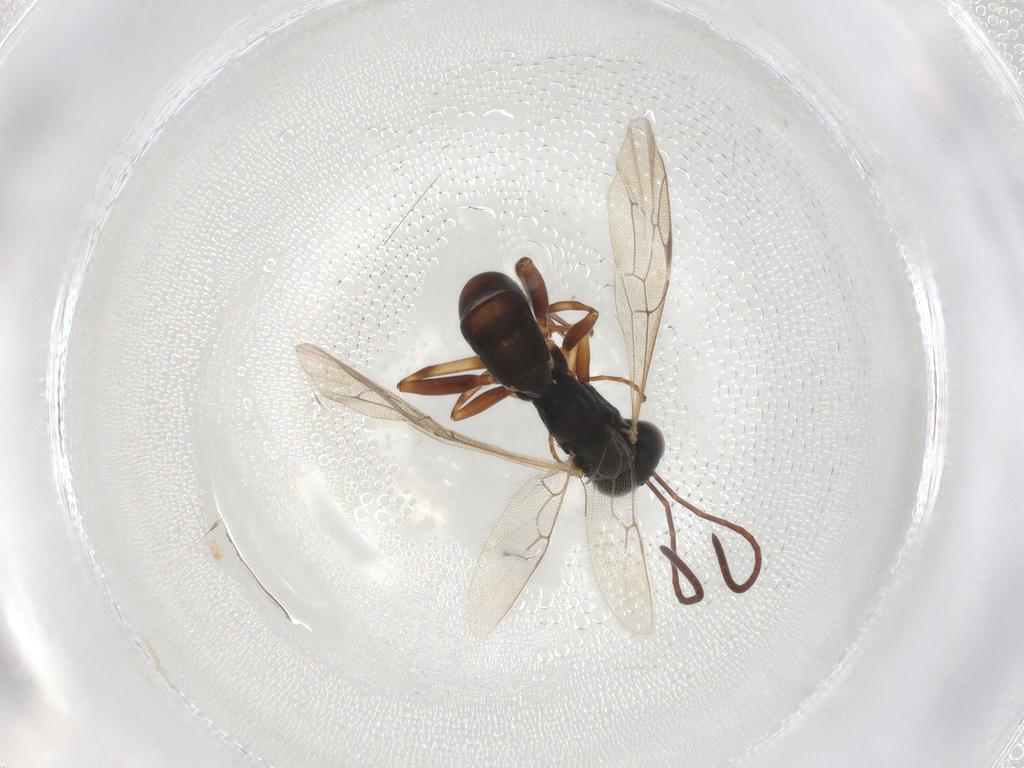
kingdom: Animalia
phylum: Arthropoda
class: Insecta
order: Hymenoptera
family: Ichneumonidae
